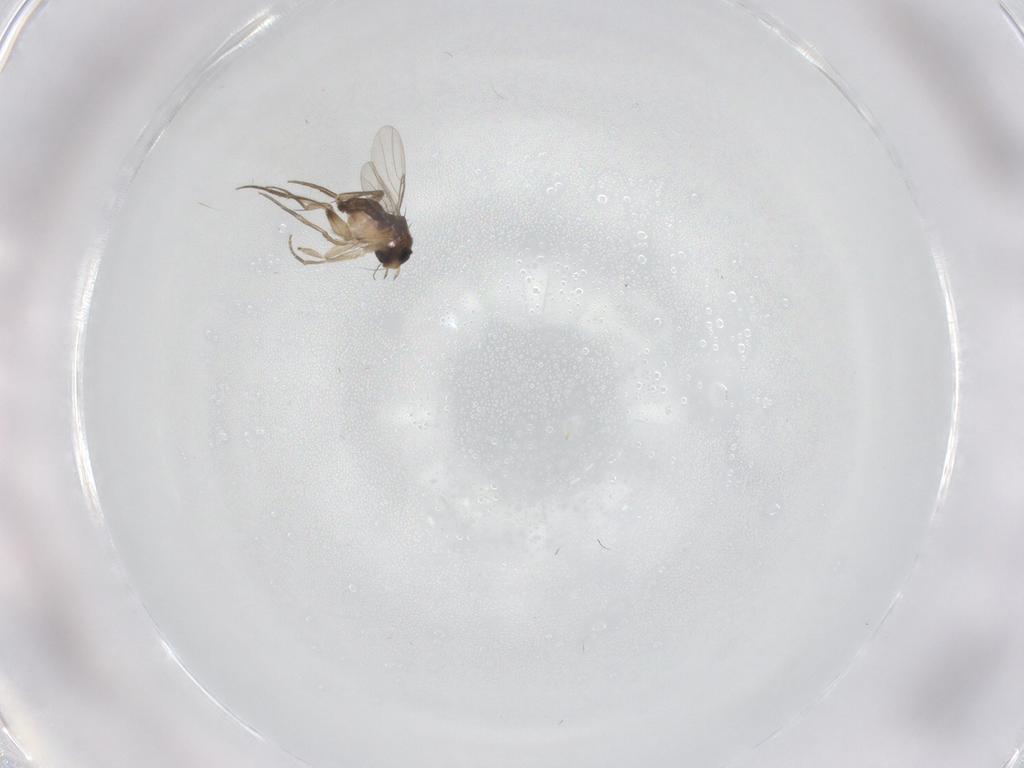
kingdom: Animalia
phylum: Arthropoda
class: Insecta
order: Diptera
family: Phoridae
